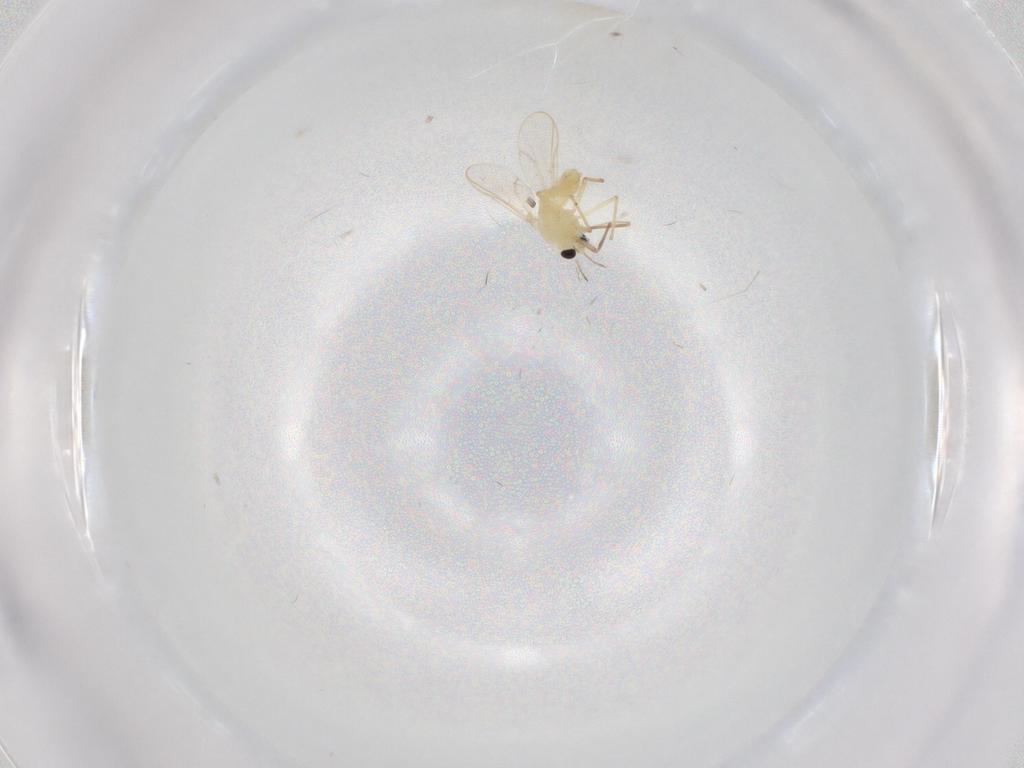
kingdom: Animalia
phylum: Arthropoda
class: Insecta
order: Diptera
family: Chironomidae
